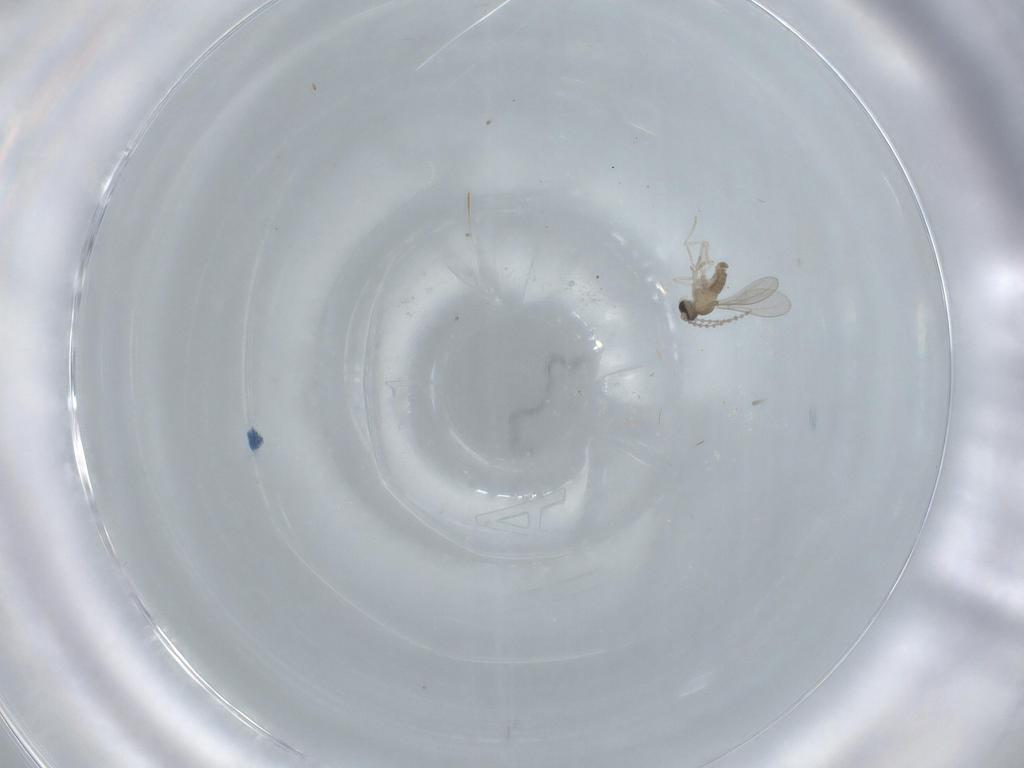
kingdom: Animalia
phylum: Arthropoda
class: Insecta
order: Diptera
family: Cecidomyiidae
